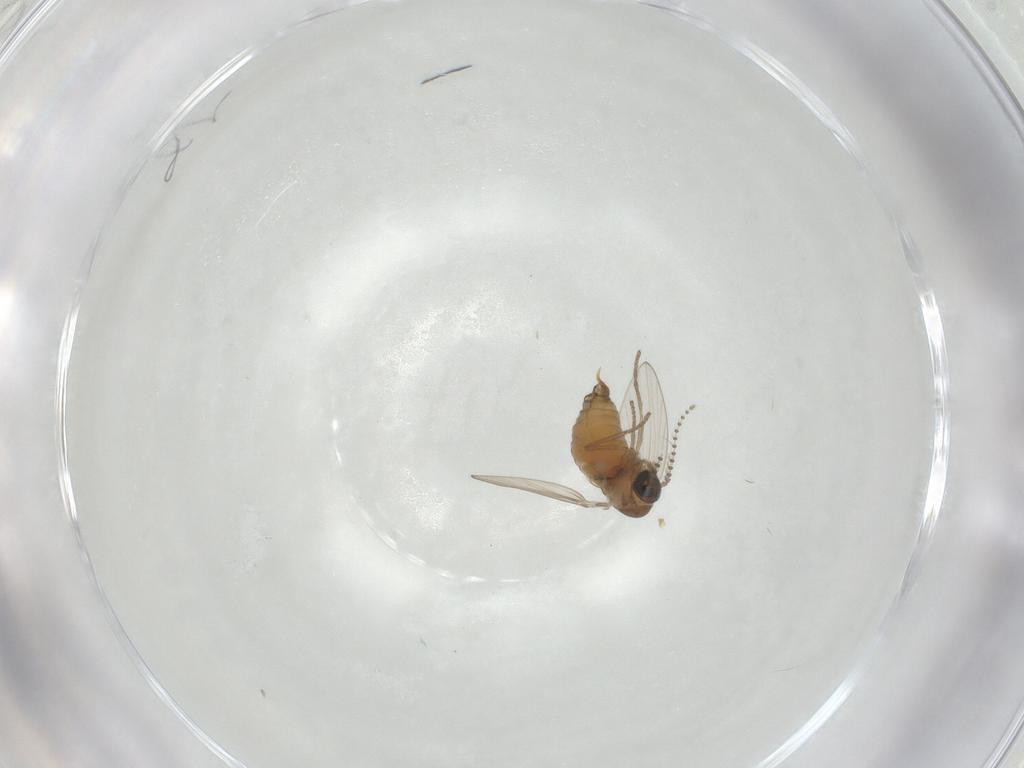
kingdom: Animalia
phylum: Arthropoda
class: Insecta
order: Diptera
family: Psychodidae
